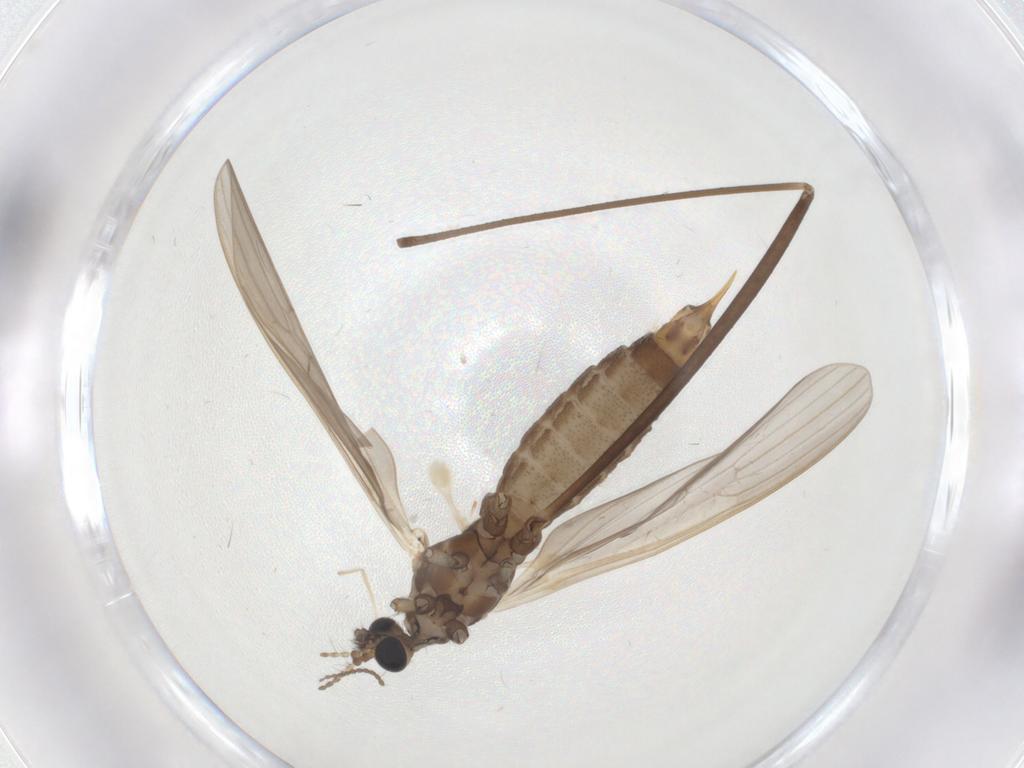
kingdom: Animalia
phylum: Arthropoda
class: Insecta
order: Diptera
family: Limoniidae
